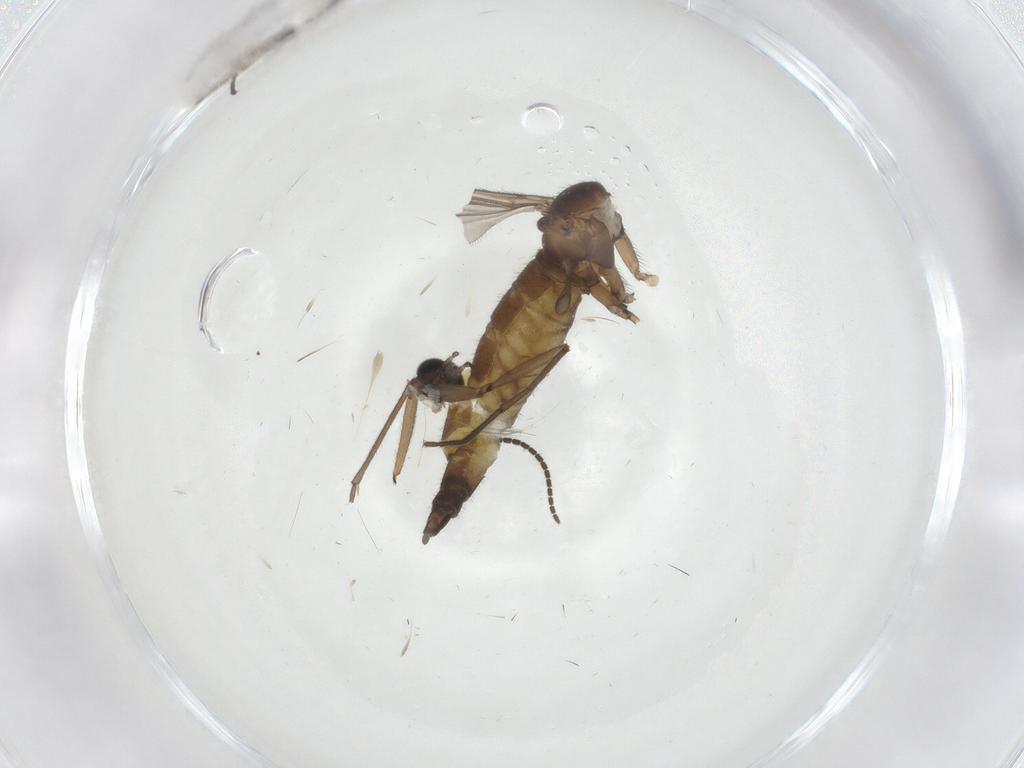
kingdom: Animalia
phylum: Arthropoda
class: Insecta
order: Diptera
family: Sciaridae
